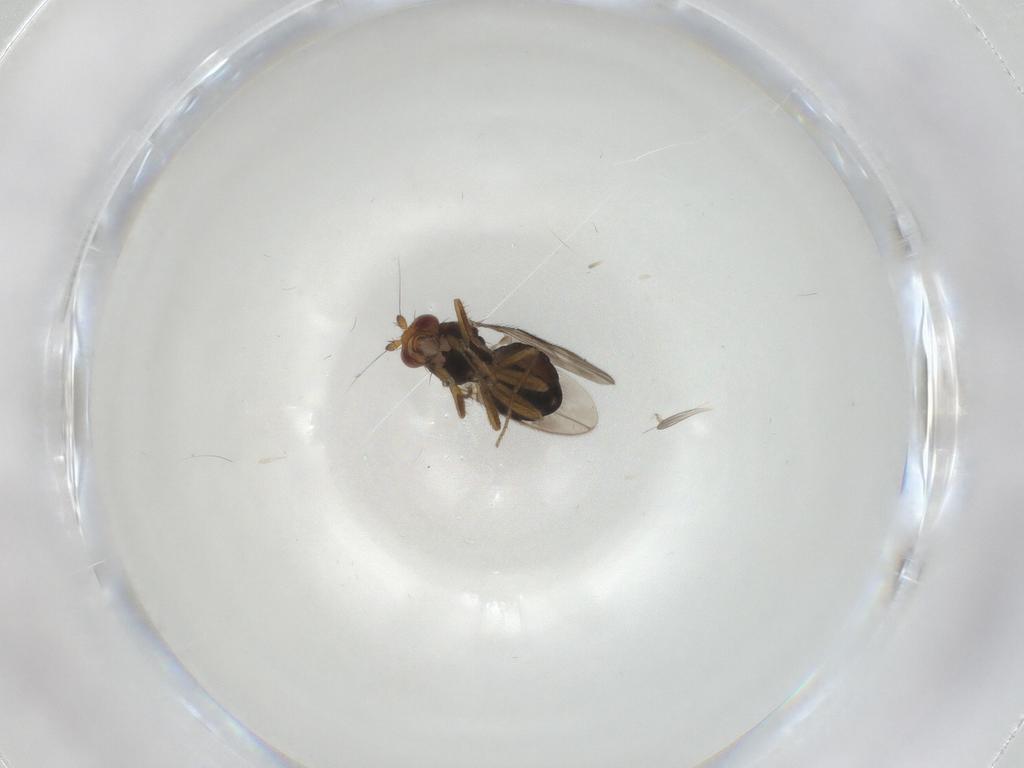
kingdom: Animalia
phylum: Arthropoda
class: Insecta
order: Diptera
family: Sphaeroceridae
